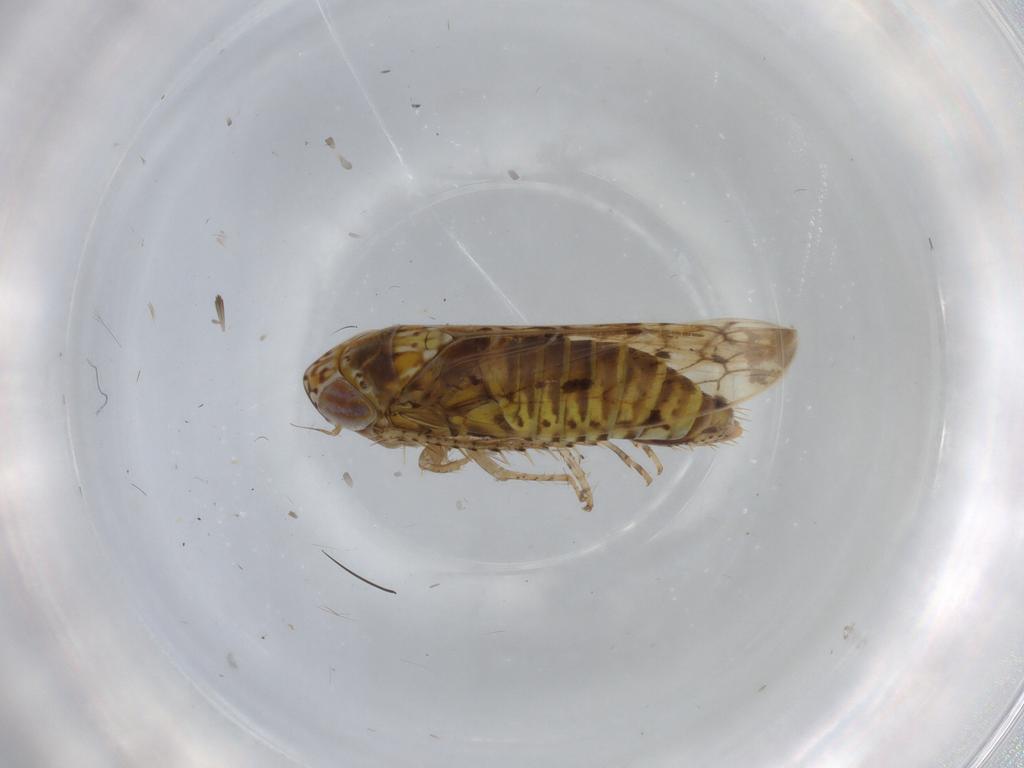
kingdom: Animalia
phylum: Arthropoda
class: Insecta
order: Hemiptera
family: Cicadellidae
